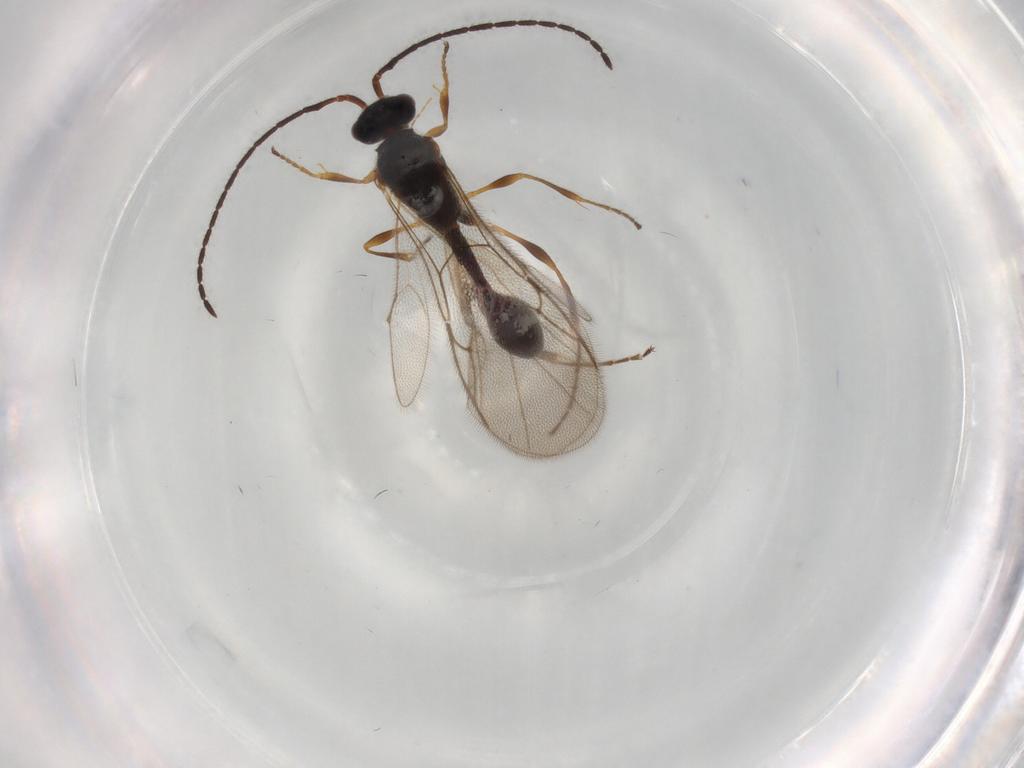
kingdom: Animalia
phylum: Arthropoda
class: Insecta
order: Hymenoptera
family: Diapriidae
